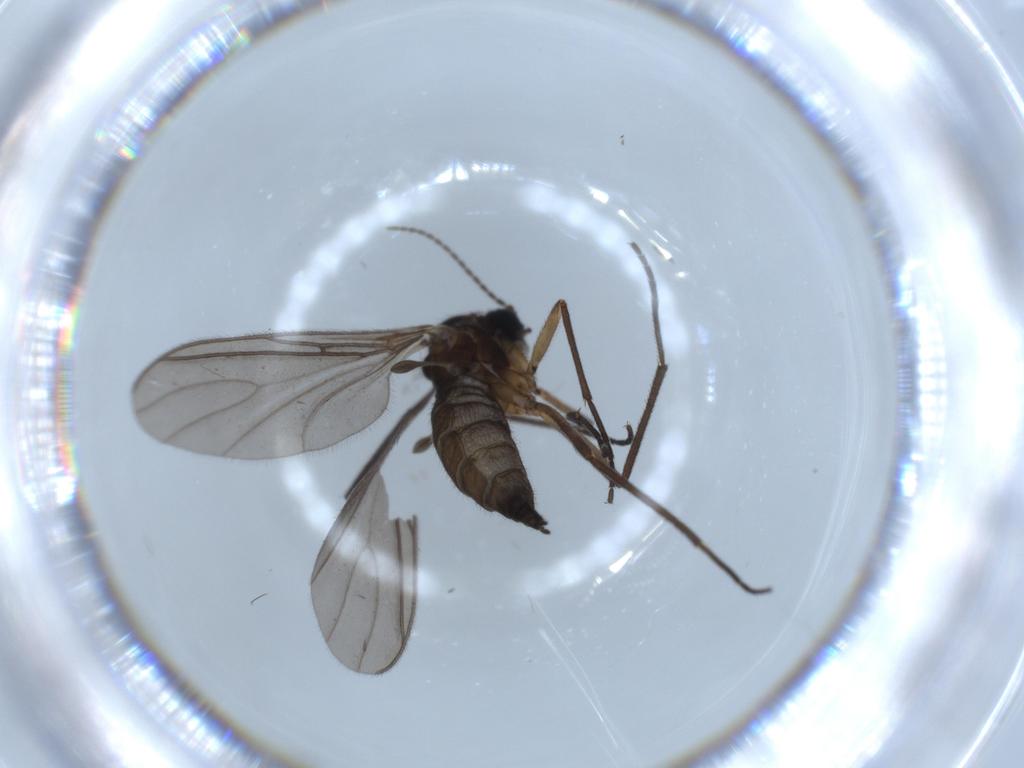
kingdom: Animalia
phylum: Arthropoda
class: Insecta
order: Diptera
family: Sciaridae
